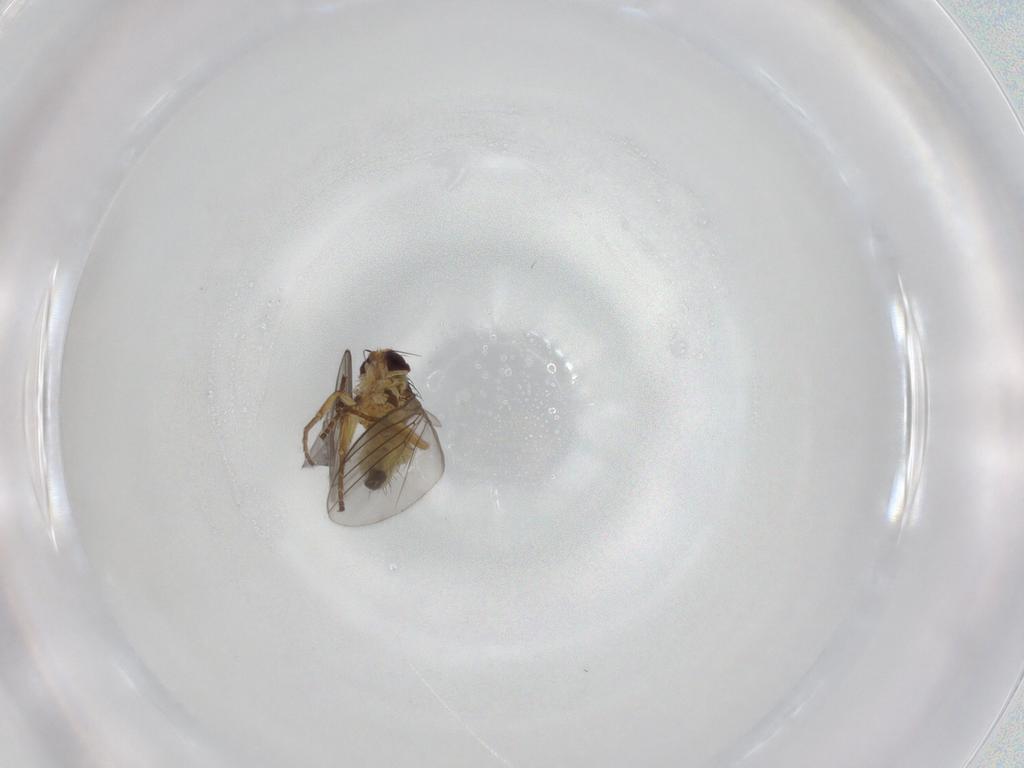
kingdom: Animalia
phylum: Arthropoda
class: Insecta
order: Diptera
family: Agromyzidae
